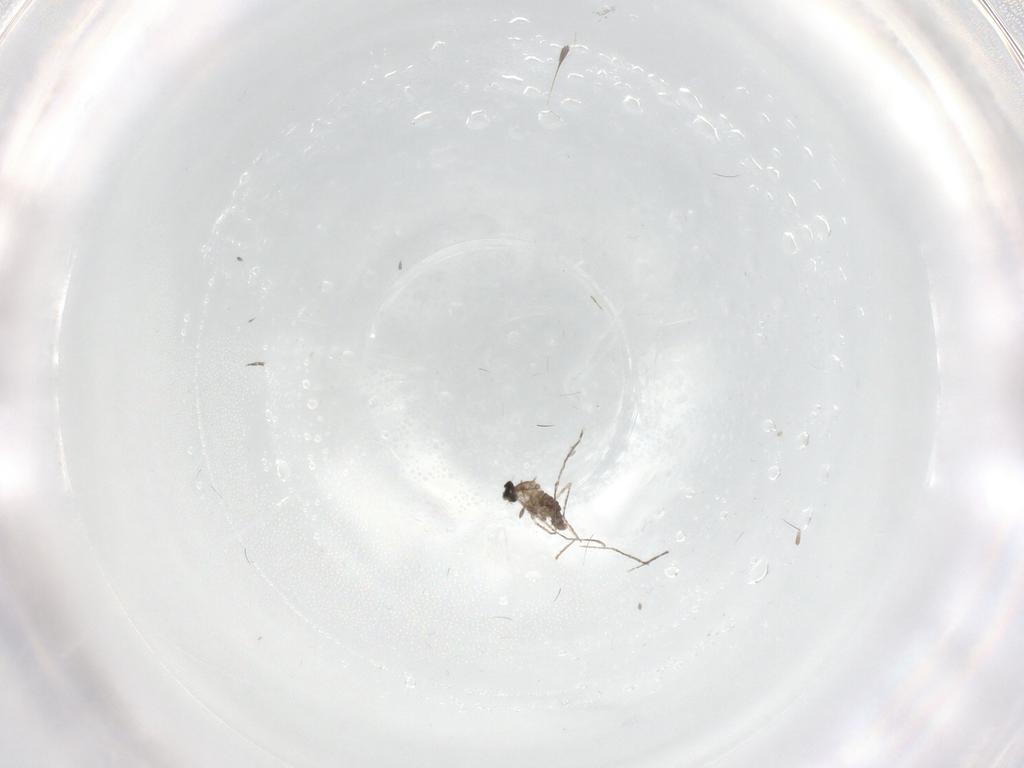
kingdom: Animalia
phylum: Arthropoda
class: Insecta
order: Diptera
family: Cecidomyiidae
